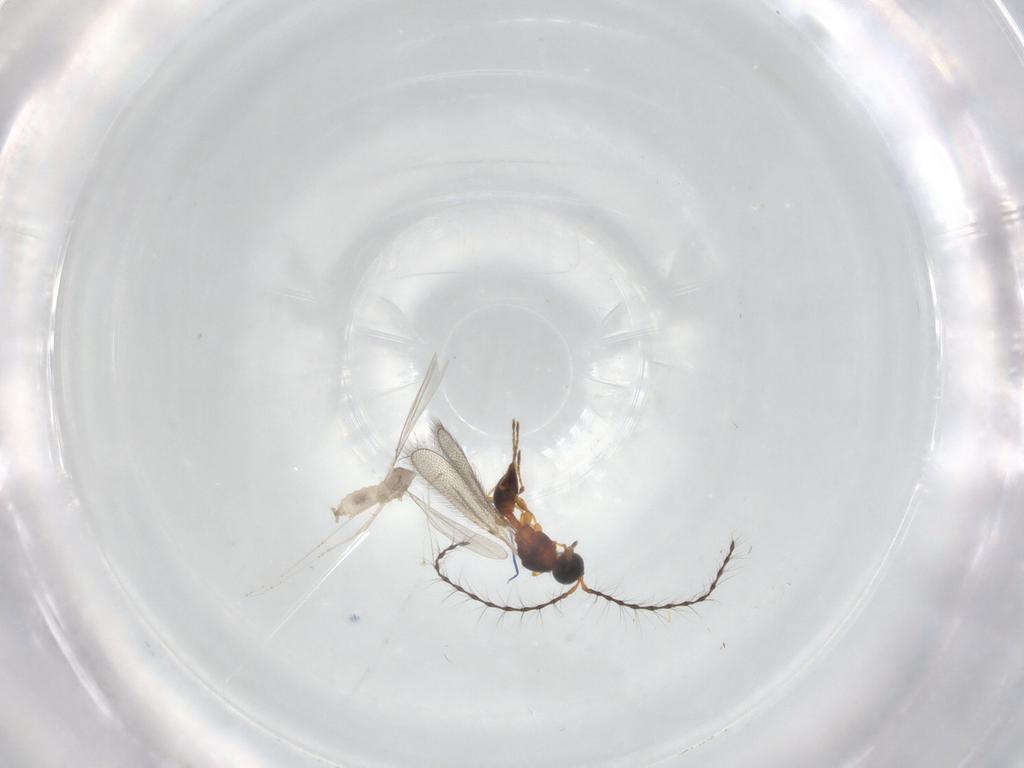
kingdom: Animalia
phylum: Arthropoda
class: Insecta
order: Diptera
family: Cecidomyiidae
